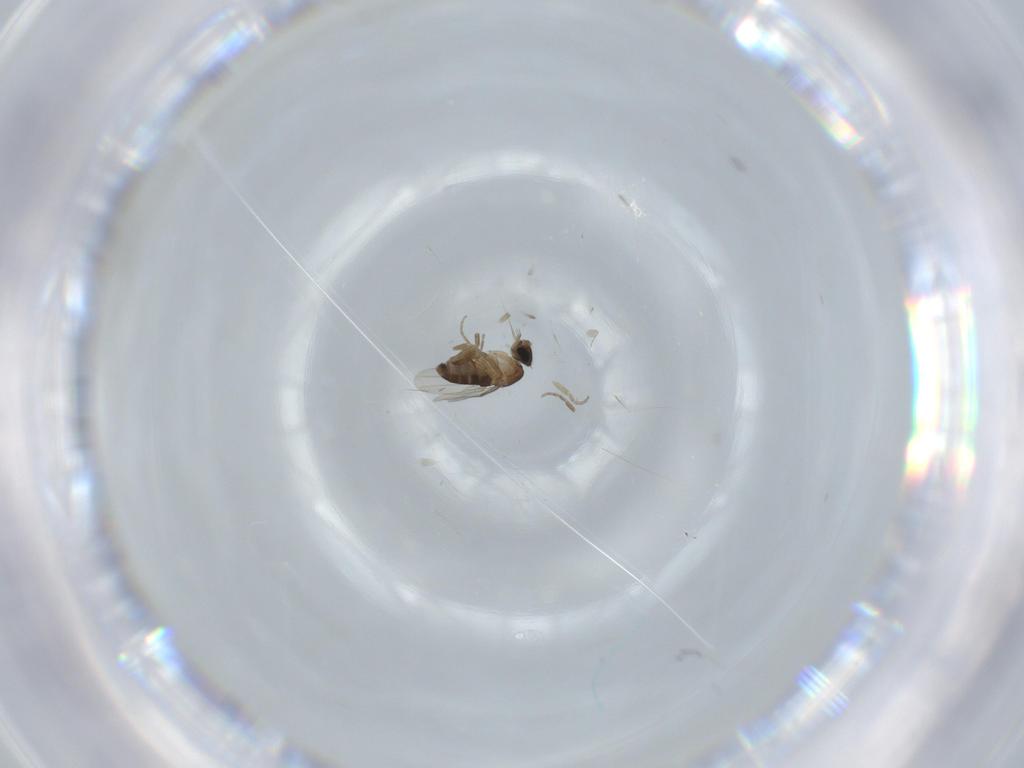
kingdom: Animalia
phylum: Arthropoda
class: Insecta
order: Diptera
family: Phoridae
